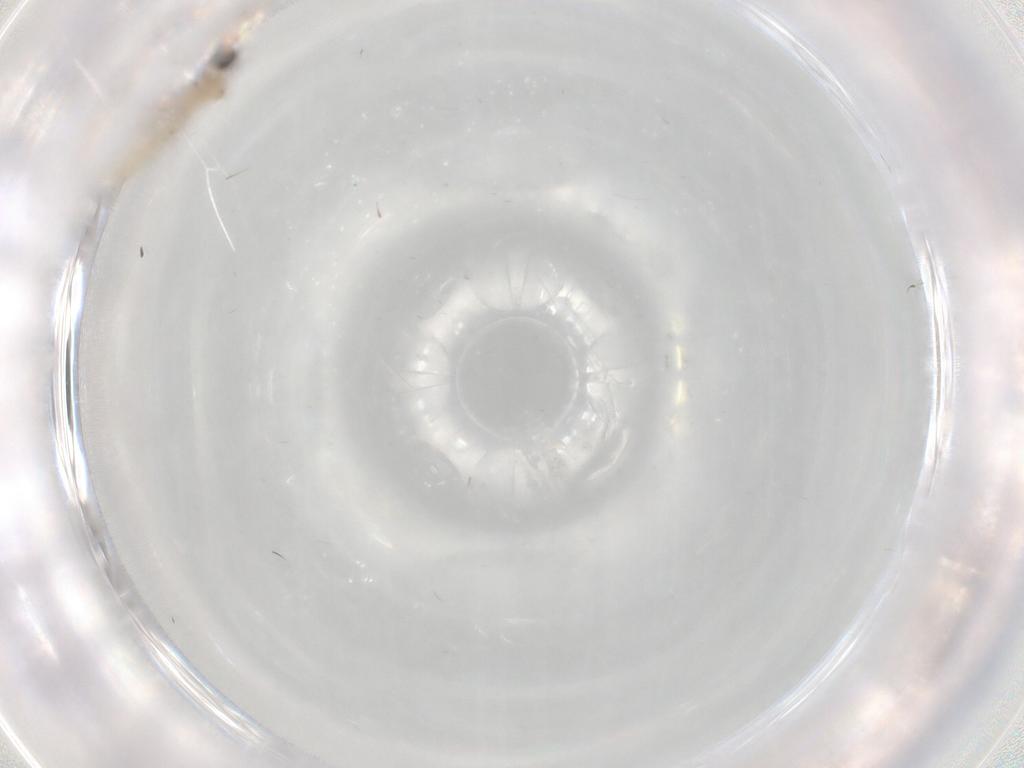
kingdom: Animalia
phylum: Arthropoda
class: Insecta
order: Diptera
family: Cecidomyiidae
